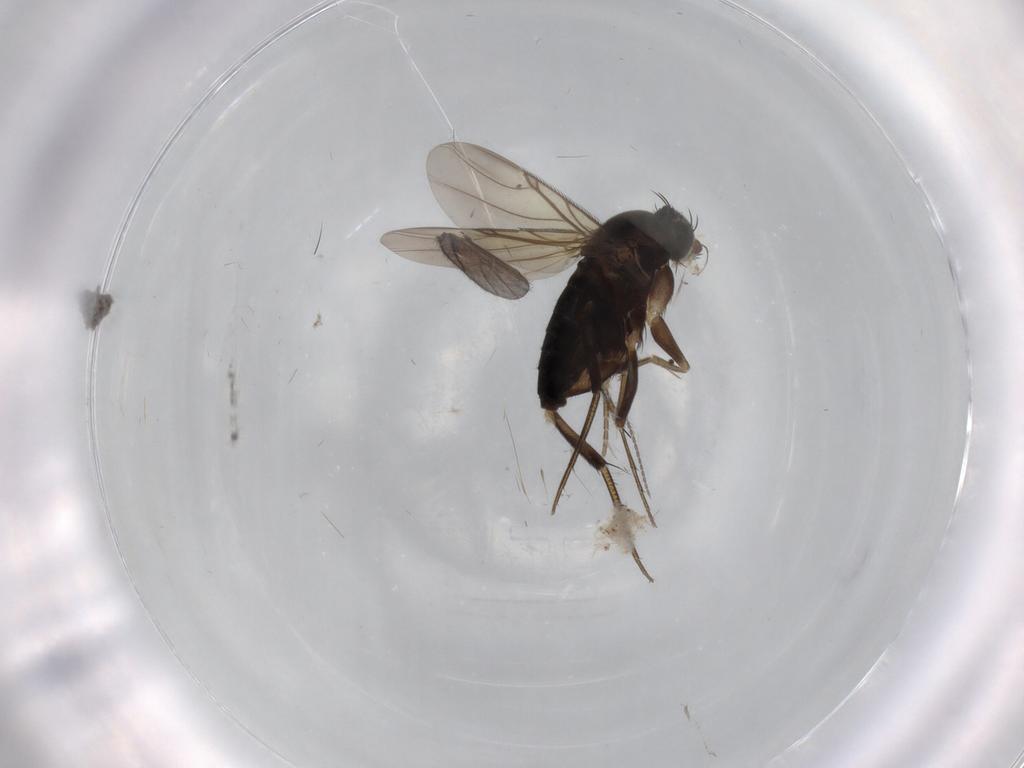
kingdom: Animalia
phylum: Arthropoda
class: Insecta
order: Diptera
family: Phoridae
